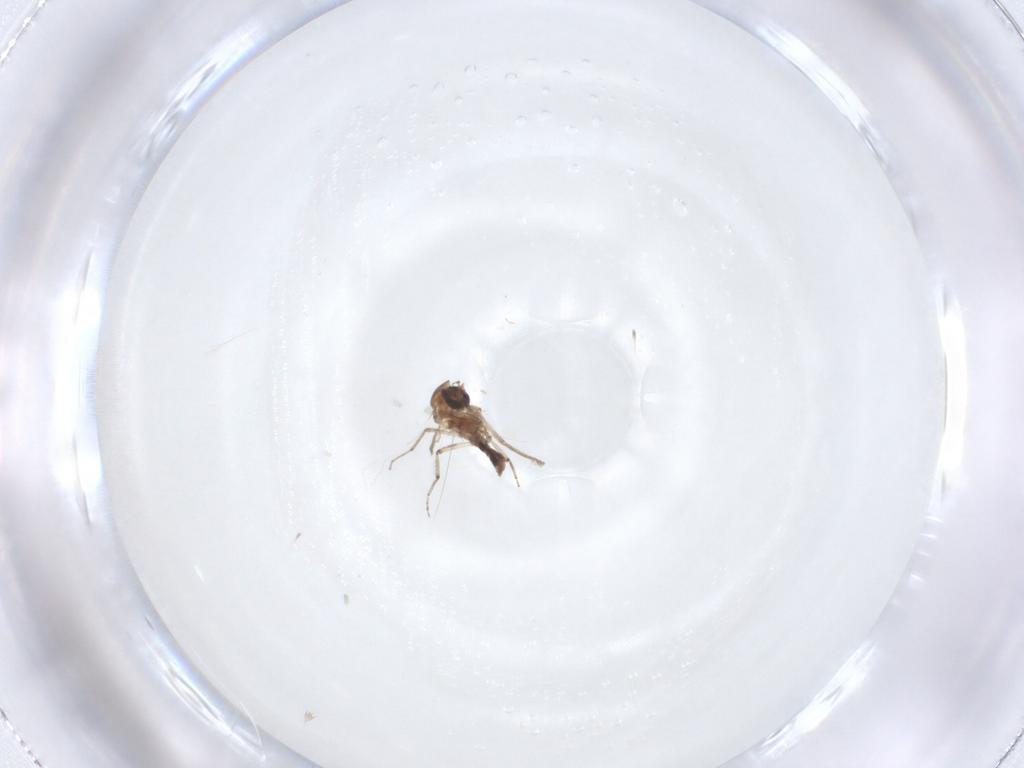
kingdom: Animalia
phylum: Arthropoda
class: Insecta
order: Diptera
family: Ceratopogonidae
